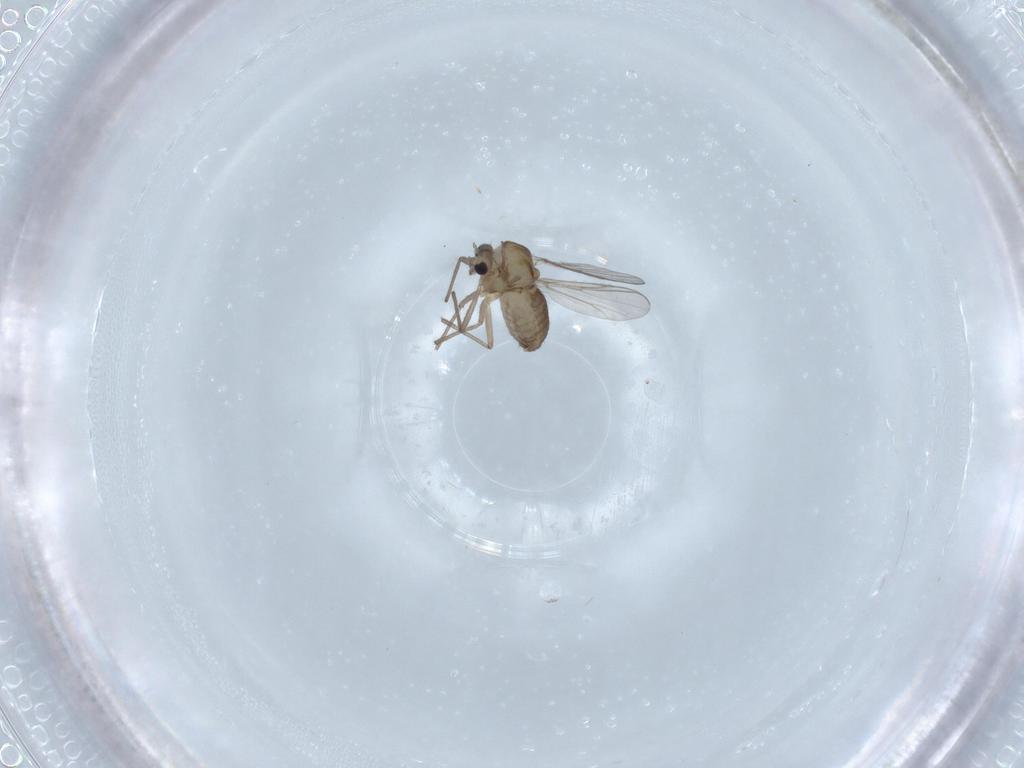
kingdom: Animalia
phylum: Arthropoda
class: Insecta
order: Diptera
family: Chironomidae
